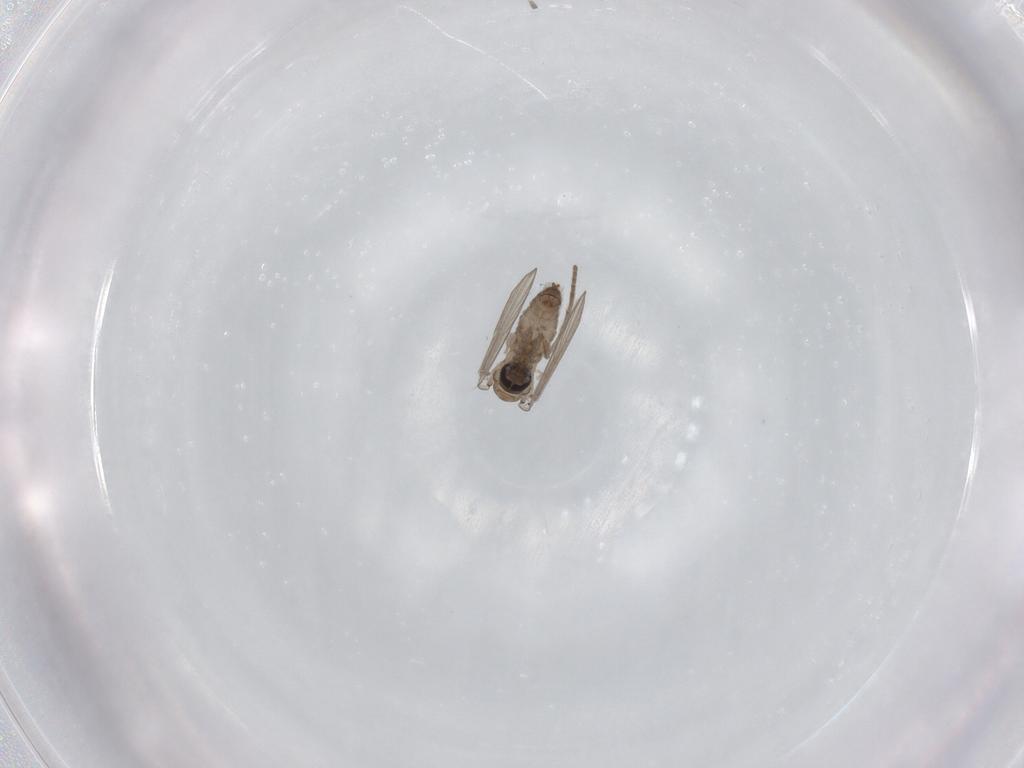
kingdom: Animalia
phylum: Arthropoda
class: Insecta
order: Diptera
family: Psychodidae
